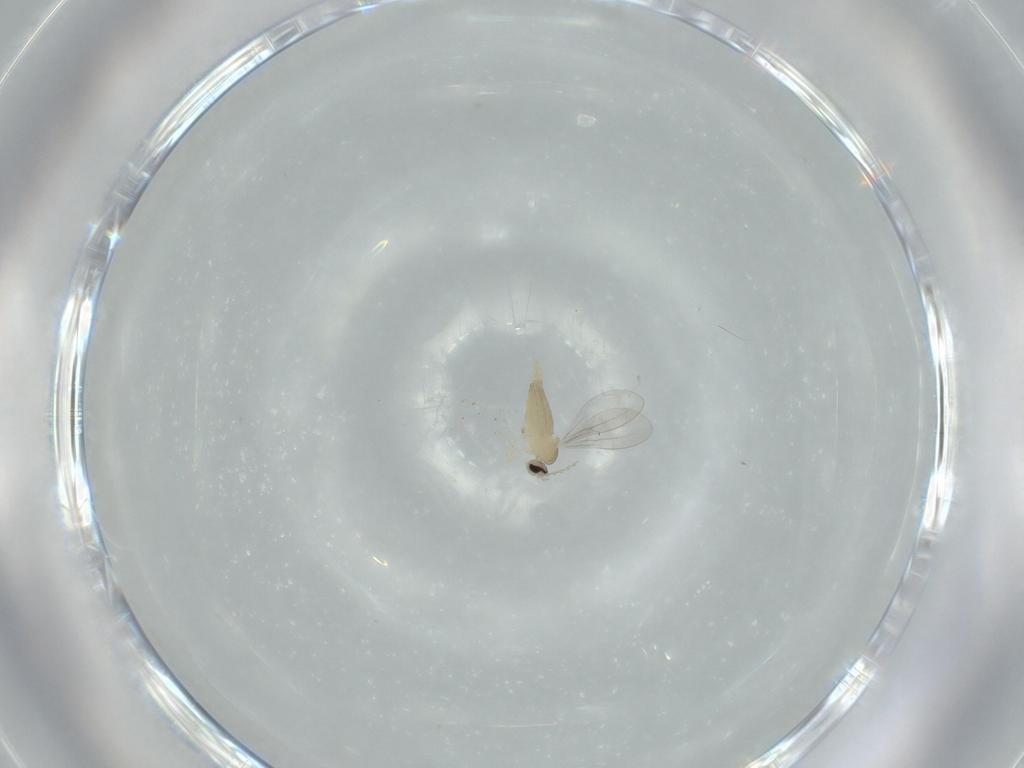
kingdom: Animalia
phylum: Arthropoda
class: Insecta
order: Diptera
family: Cecidomyiidae
